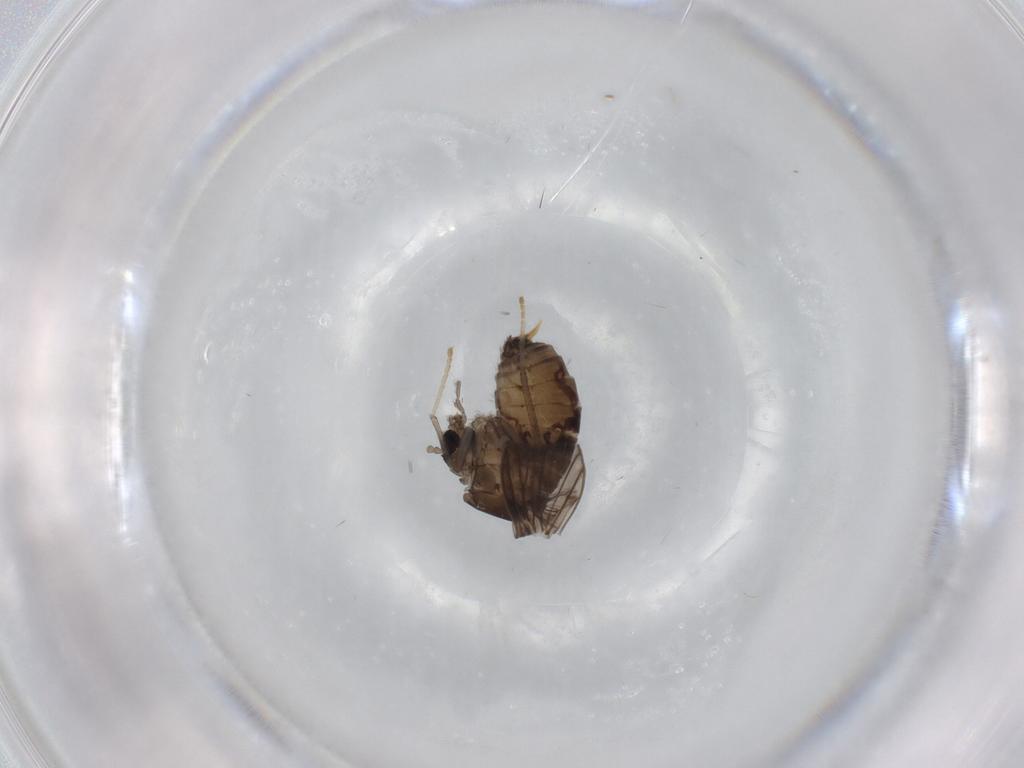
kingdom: Animalia
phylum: Arthropoda
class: Insecta
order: Diptera
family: Psychodidae
